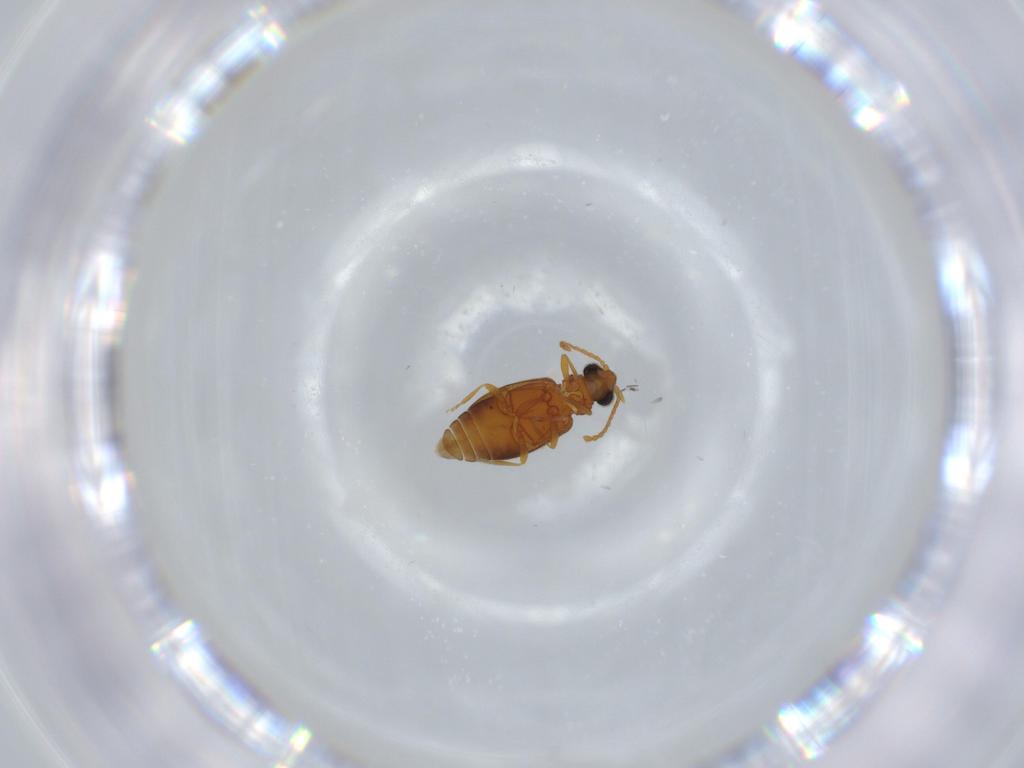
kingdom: Animalia
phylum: Arthropoda
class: Insecta
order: Coleoptera
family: Aderidae
